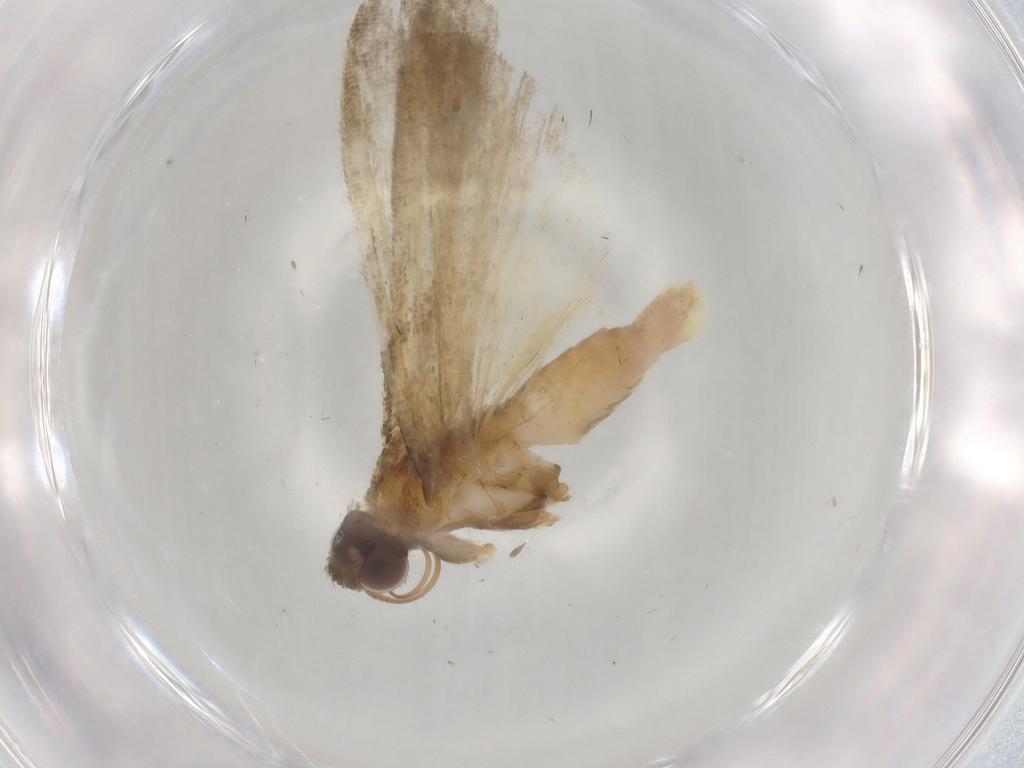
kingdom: Animalia
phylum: Arthropoda
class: Insecta
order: Lepidoptera
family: Noctuidae
